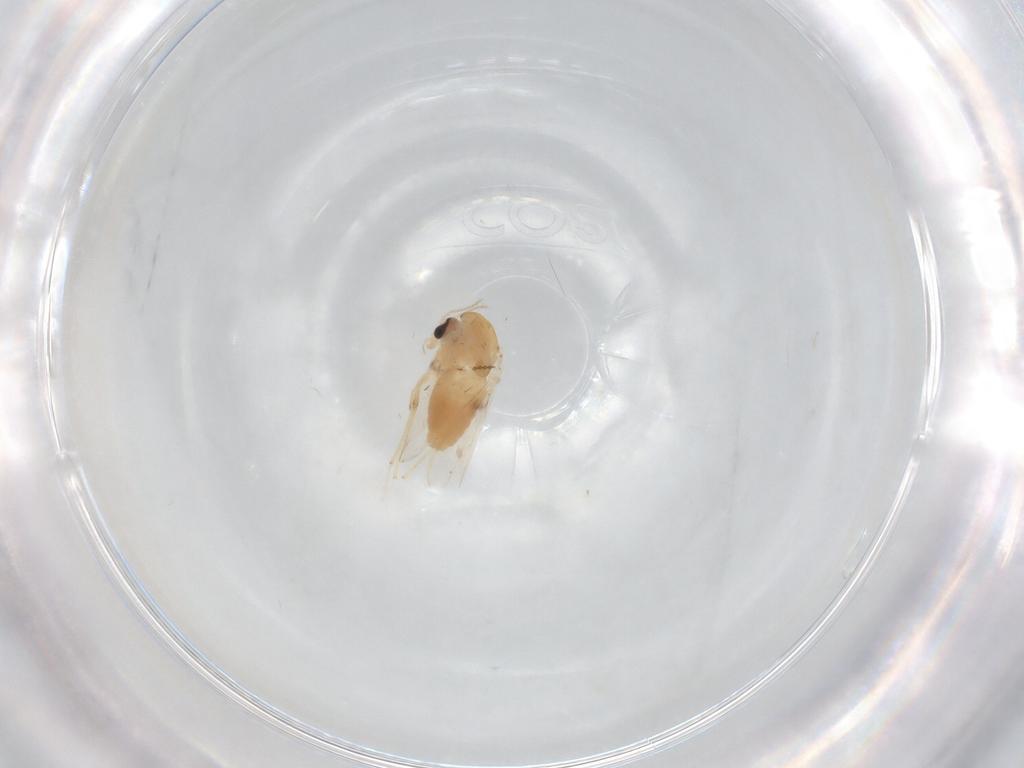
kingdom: Animalia
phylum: Arthropoda
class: Insecta
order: Diptera
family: Chironomidae
